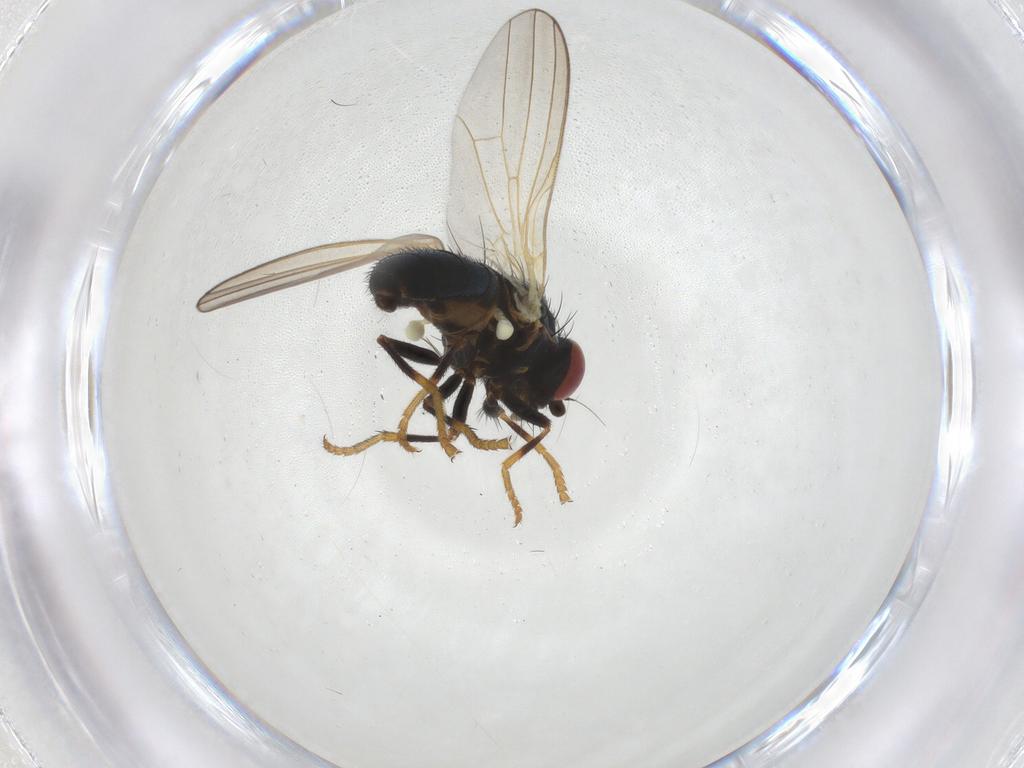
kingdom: Animalia
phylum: Arthropoda
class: Insecta
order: Diptera
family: Chamaemyiidae
